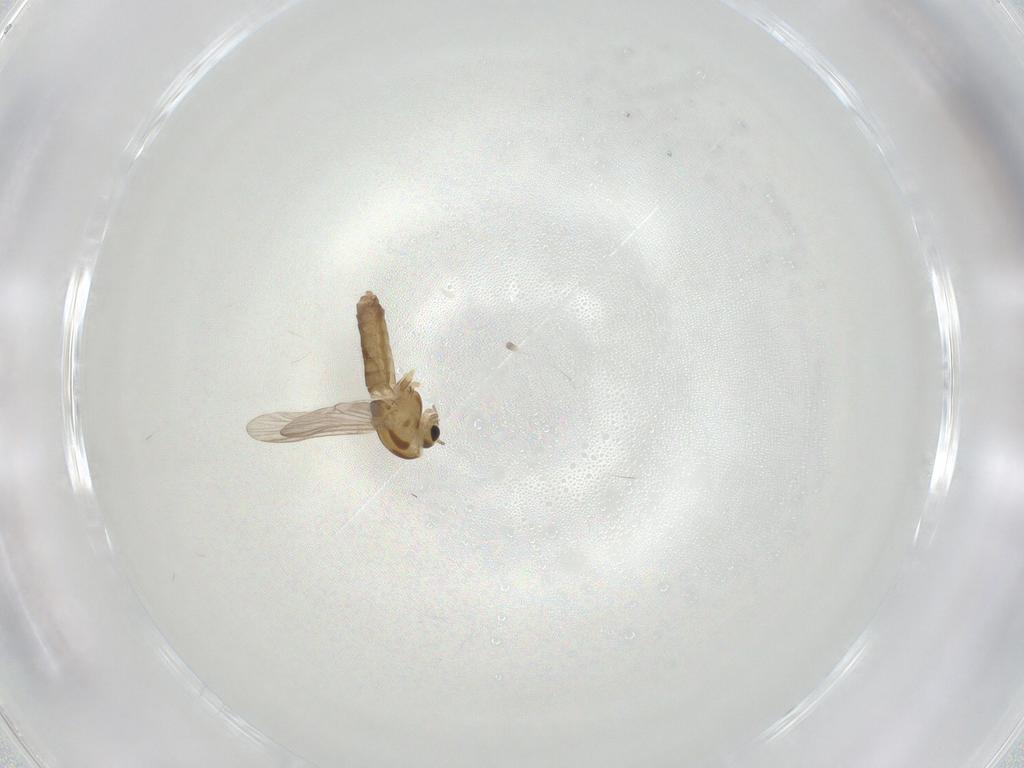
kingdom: Animalia
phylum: Arthropoda
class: Insecta
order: Diptera
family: Chironomidae
